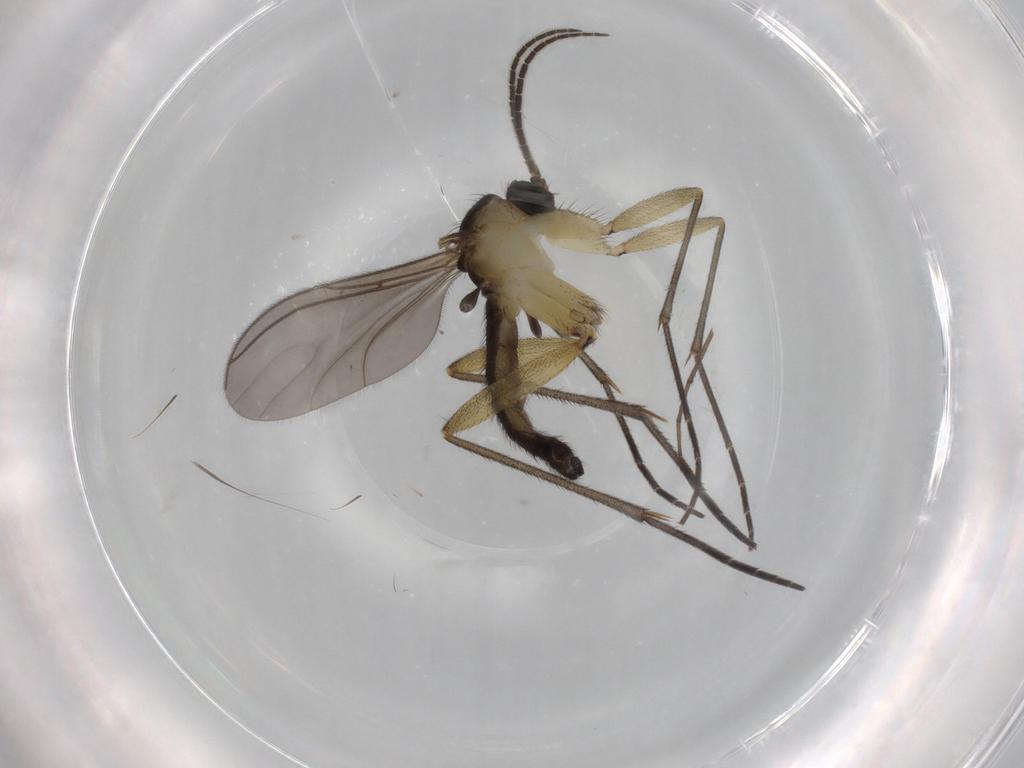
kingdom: Animalia
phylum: Arthropoda
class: Insecta
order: Diptera
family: Sciaridae
